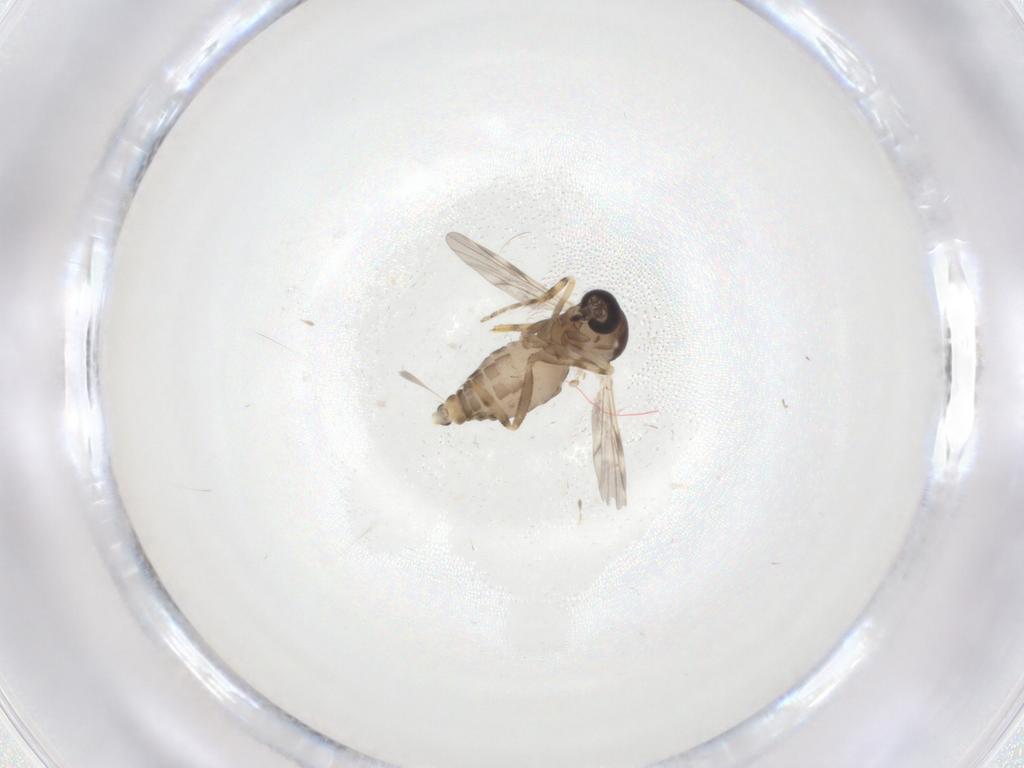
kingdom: Animalia
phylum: Arthropoda
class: Insecta
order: Diptera
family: Ceratopogonidae
